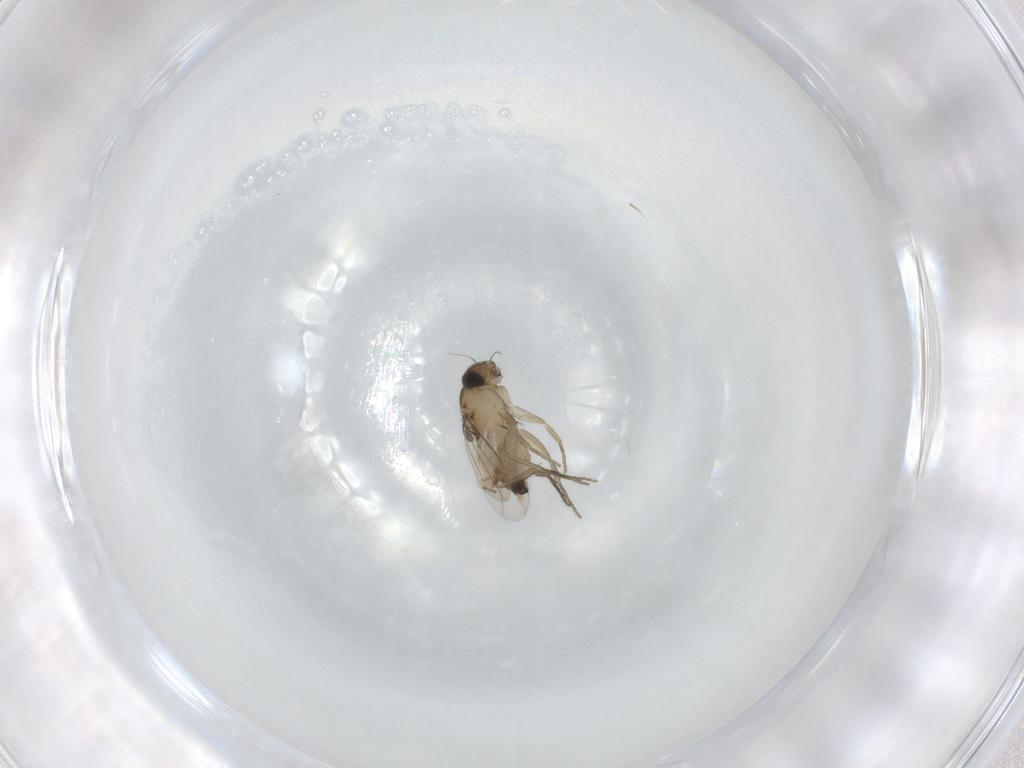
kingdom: Animalia
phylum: Arthropoda
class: Insecta
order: Diptera
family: Phoridae
